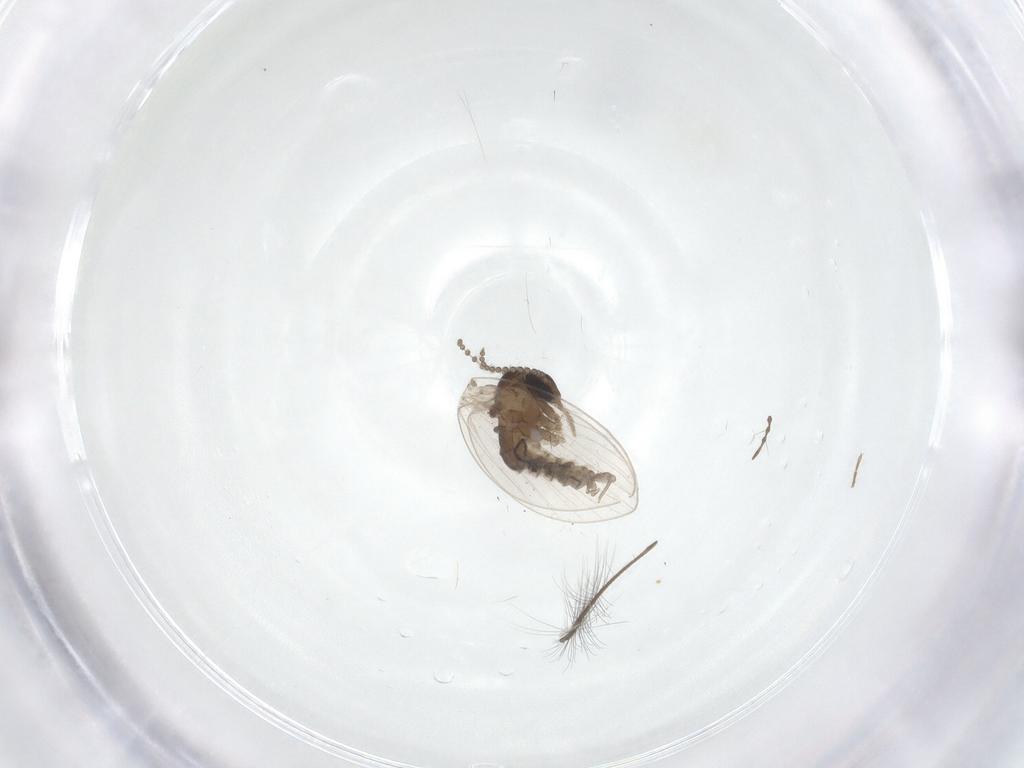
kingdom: Animalia
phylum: Arthropoda
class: Insecta
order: Diptera
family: Chironomidae
